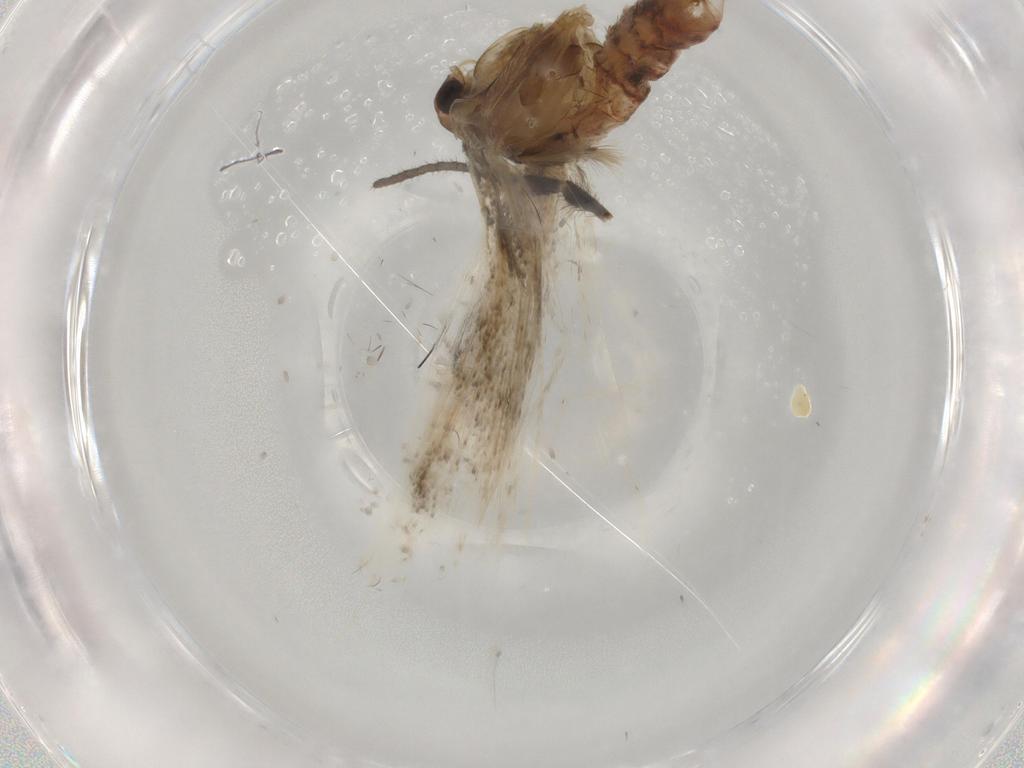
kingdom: Animalia
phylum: Arthropoda
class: Insecta
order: Lepidoptera
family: Gelechiidae
